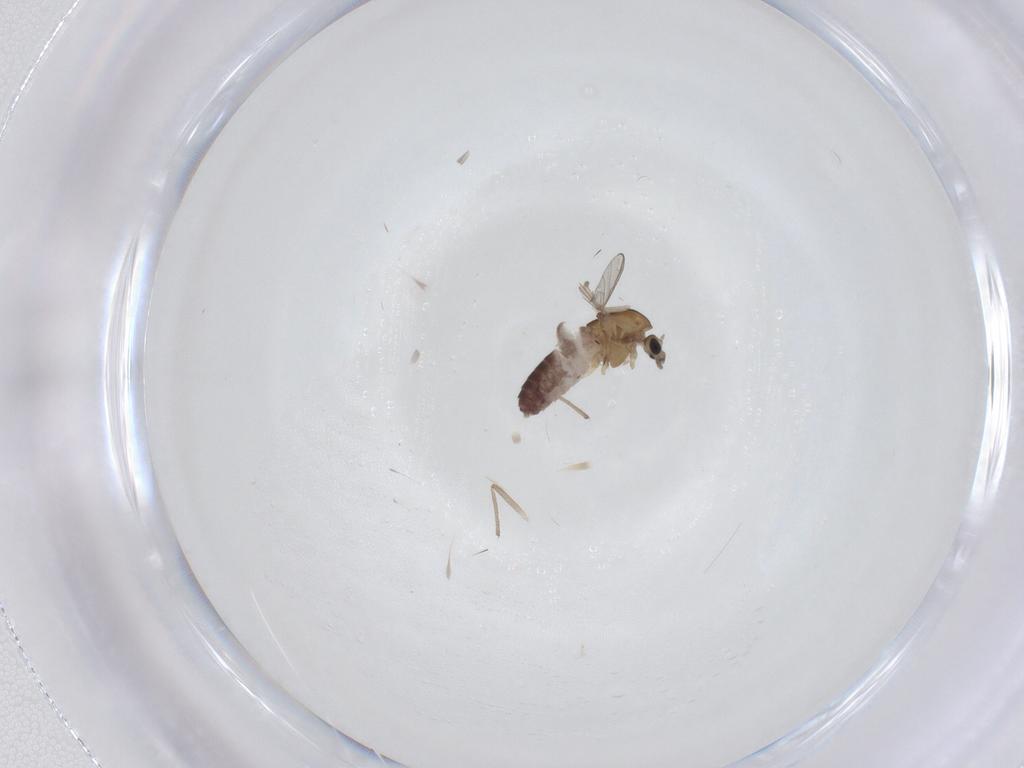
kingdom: Animalia
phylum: Arthropoda
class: Insecta
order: Diptera
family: Chironomidae
